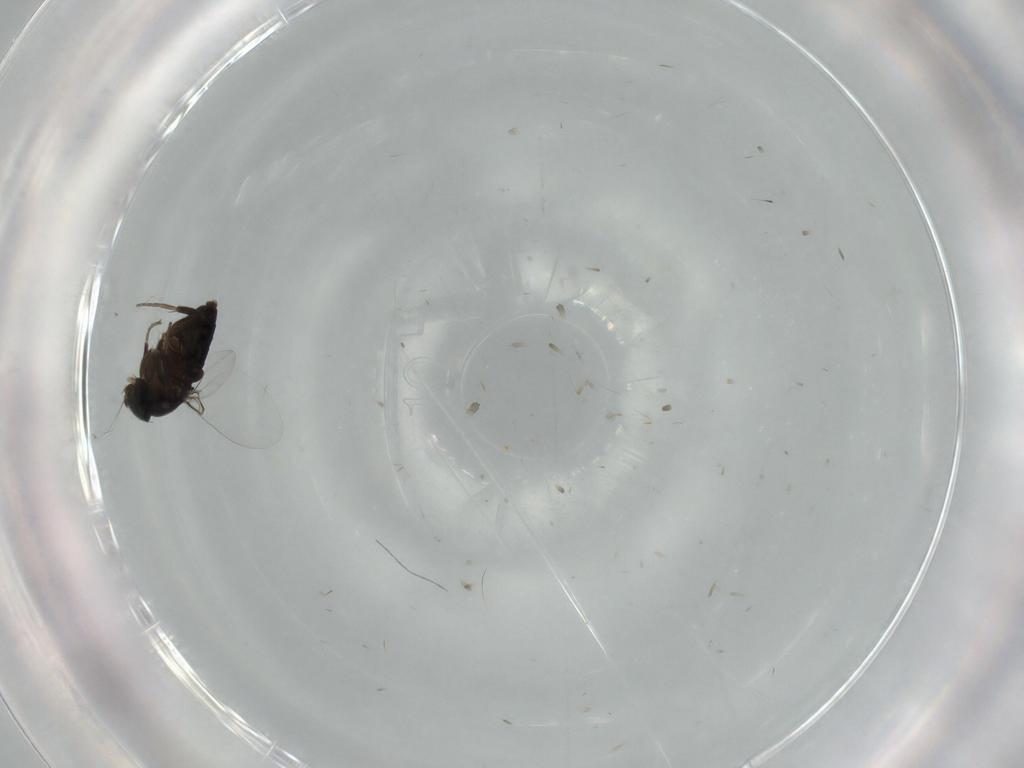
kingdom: Animalia
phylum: Arthropoda
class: Insecta
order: Diptera
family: Phoridae
